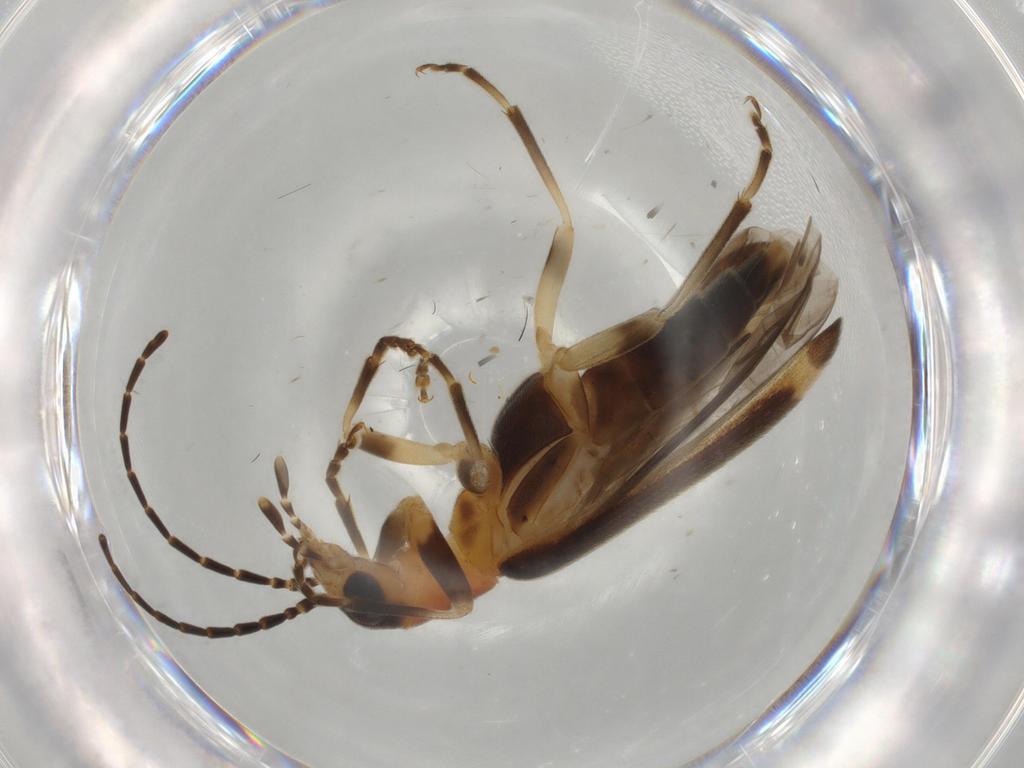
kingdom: Animalia
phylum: Arthropoda
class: Insecta
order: Coleoptera
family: Oedemeridae
